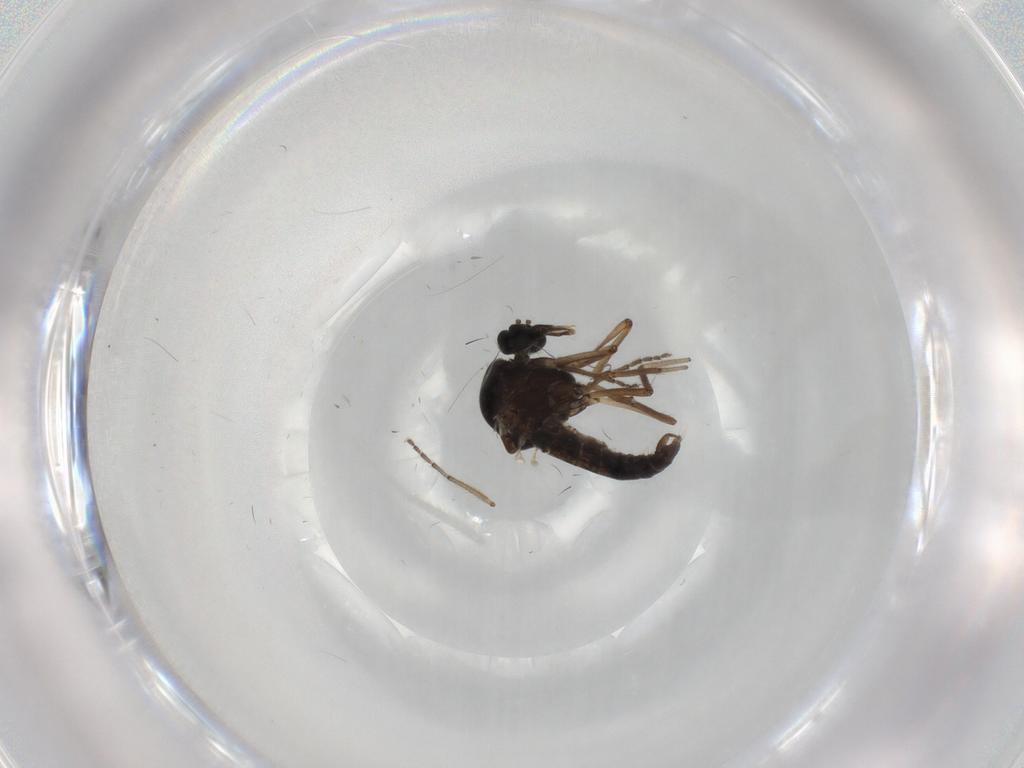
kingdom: Animalia
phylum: Arthropoda
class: Insecta
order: Diptera
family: Ceratopogonidae
